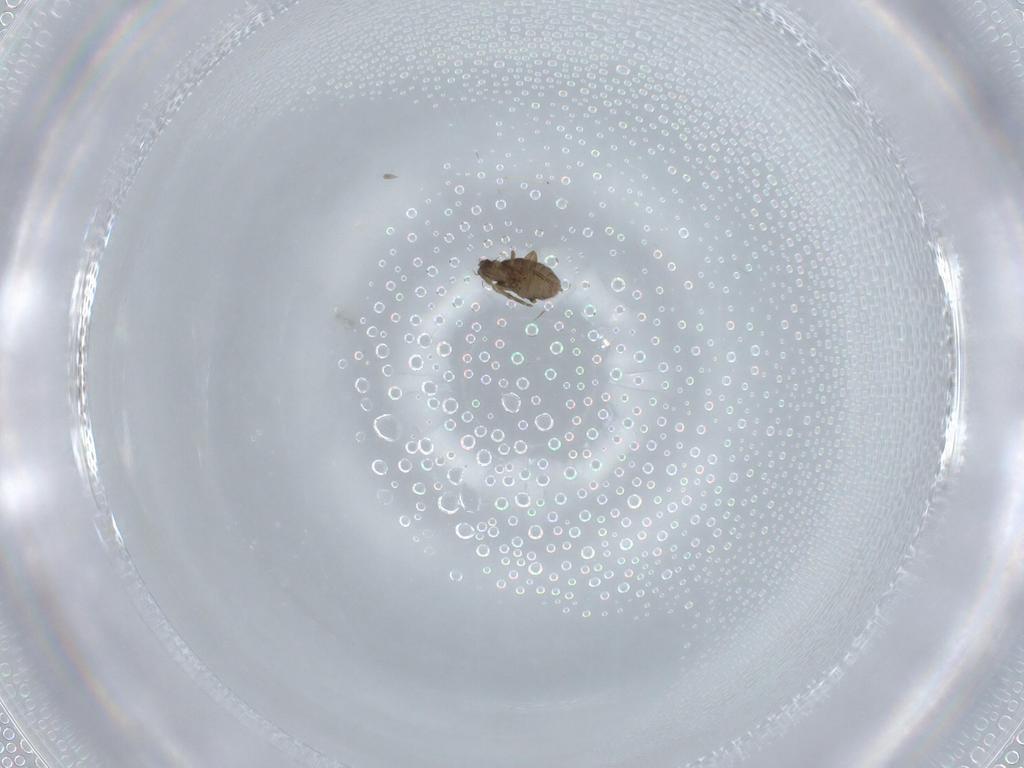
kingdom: Animalia
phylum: Arthropoda
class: Insecta
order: Diptera
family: Phoridae
